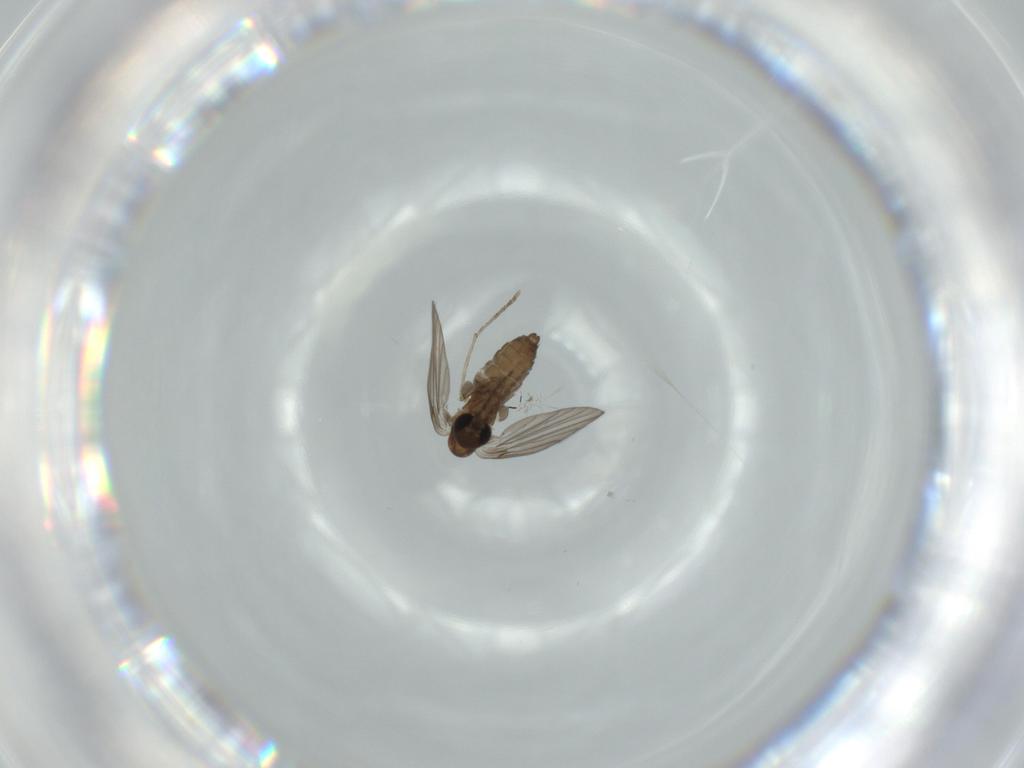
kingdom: Animalia
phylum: Arthropoda
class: Insecta
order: Diptera
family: Psychodidae
